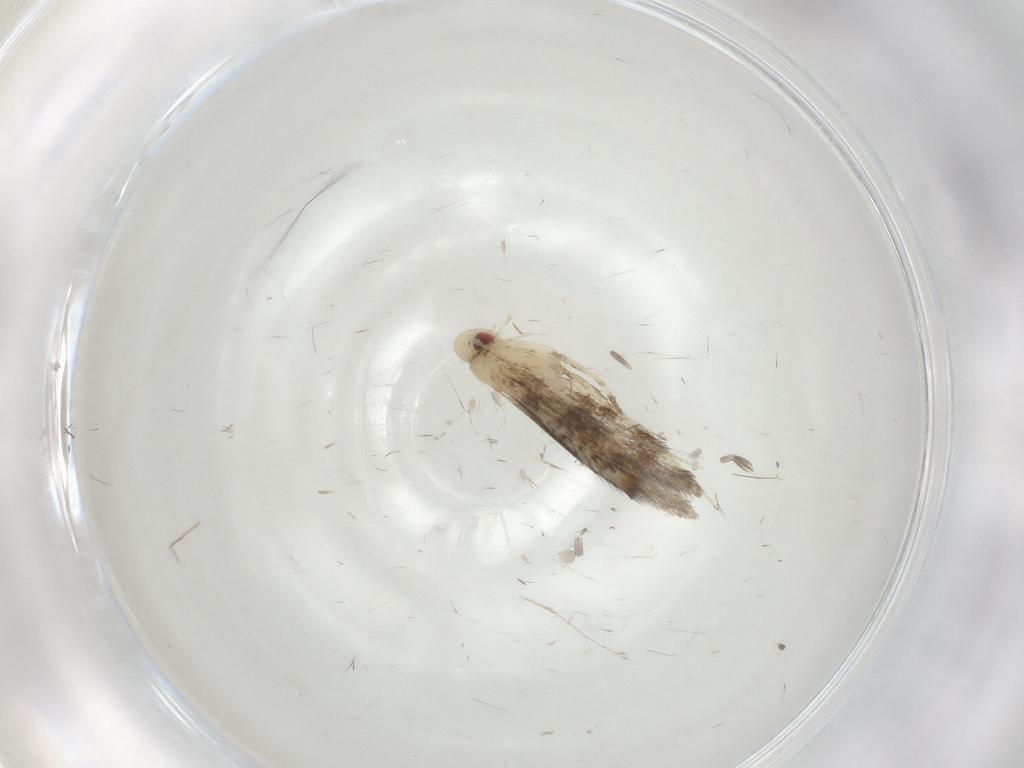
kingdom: Animalia
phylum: Arthropoda
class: Insecta
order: Lepidoptera
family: Gracillariidae
